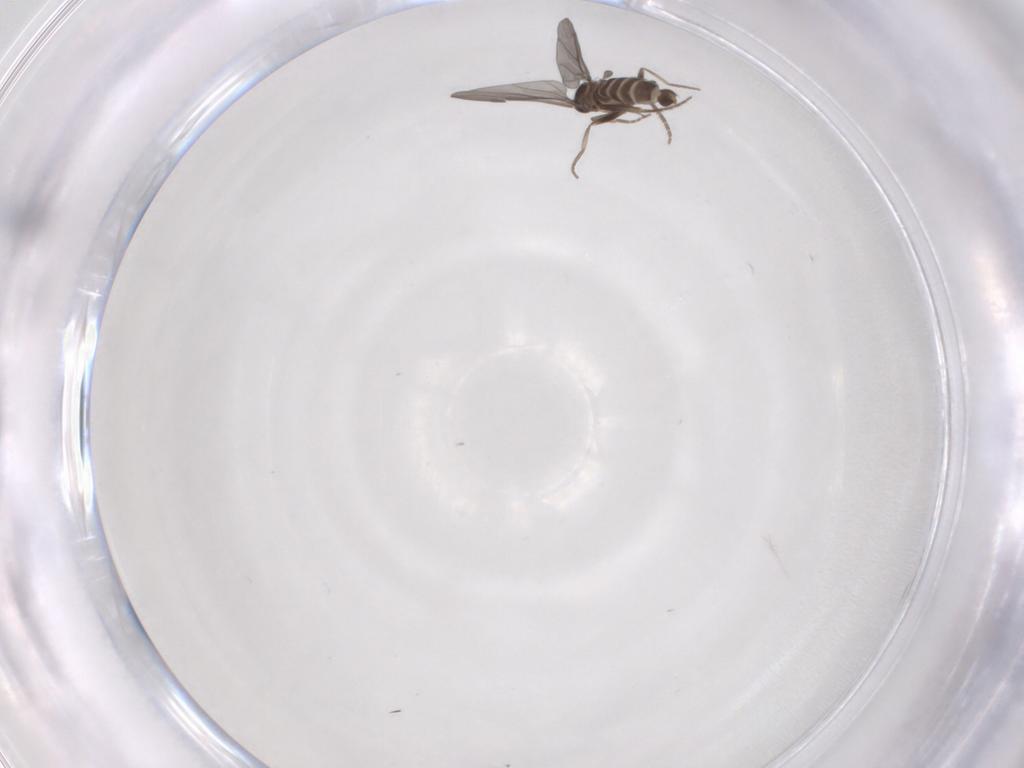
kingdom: Animalia
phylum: Arthropoda
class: Insecta
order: Diptera
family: Phoridae
